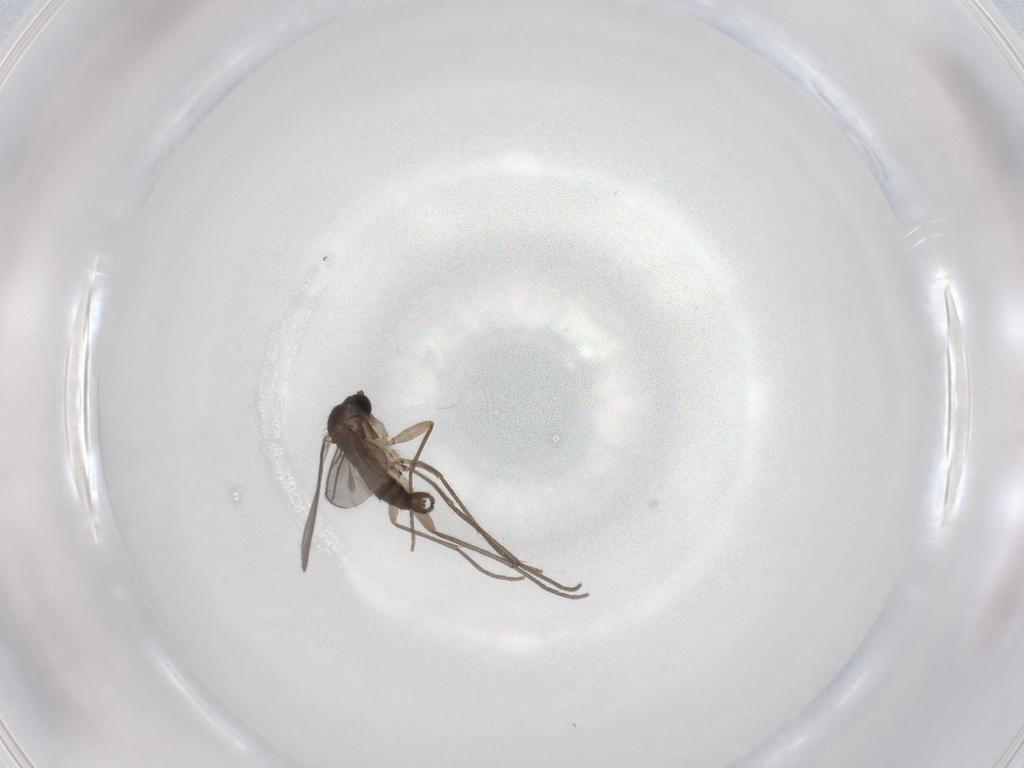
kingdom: Animalia
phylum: Arthropoda
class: Insecta
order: Diptera
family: Sciaridae
